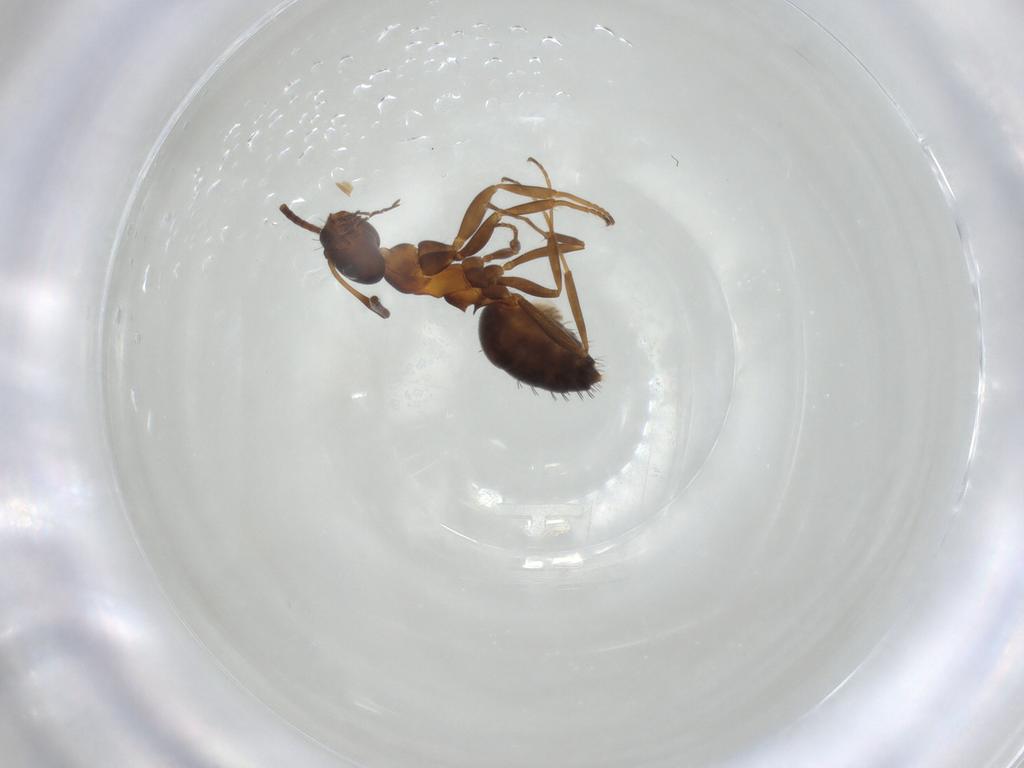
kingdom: Animalia
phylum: Arthropoda
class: Insecta
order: Hymenoptera
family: Formicidae
